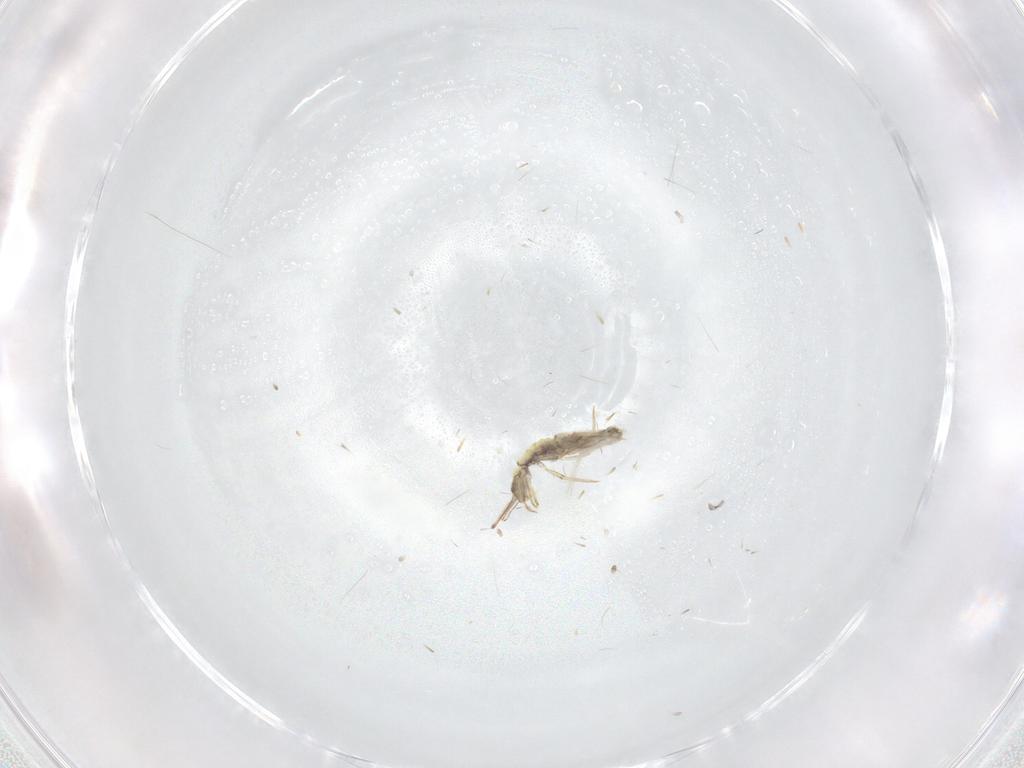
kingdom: Animalia
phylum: Arthropoda
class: Collembola
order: Entomobryomorpha
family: Entomobryidae
